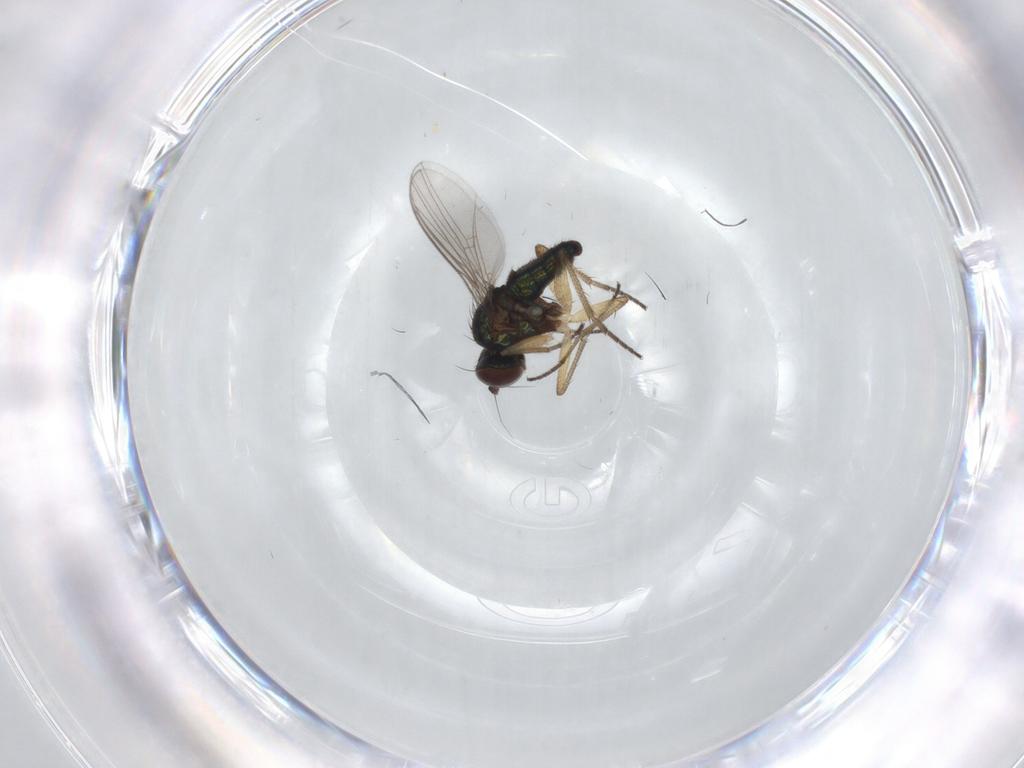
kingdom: Animalia
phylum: Arthropoda
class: Insecta
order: Diptera
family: Dolichopodidae
